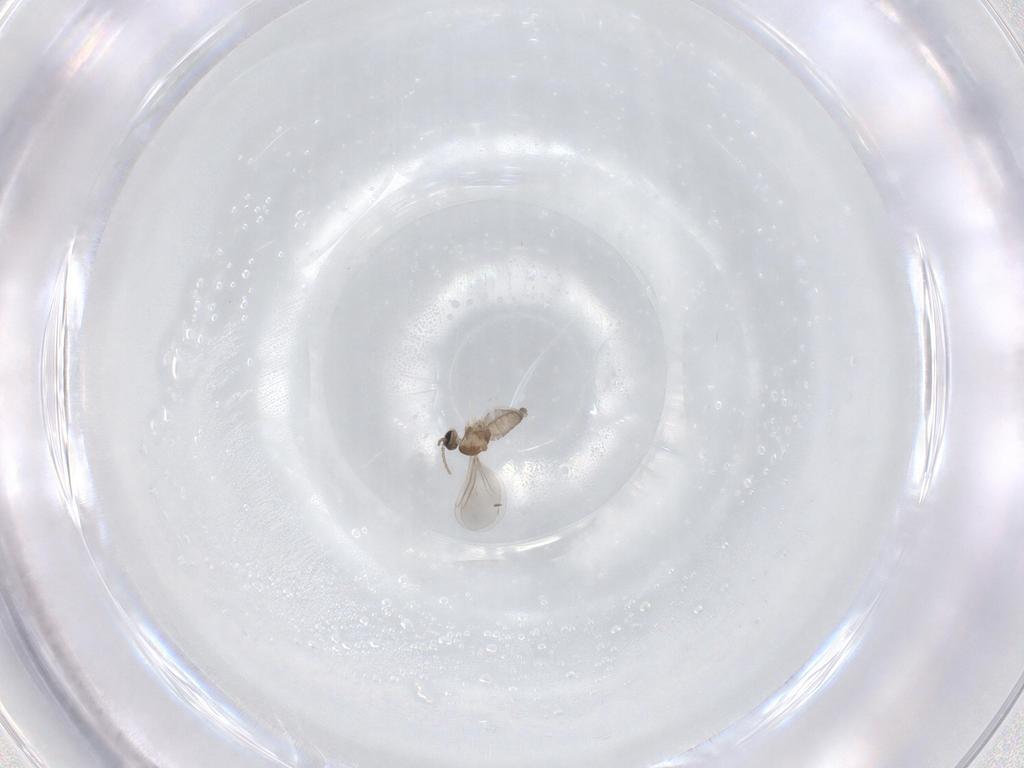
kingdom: Animalia
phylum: Arthropoda
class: Insecta
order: Diptera
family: Cecidomyiidae
